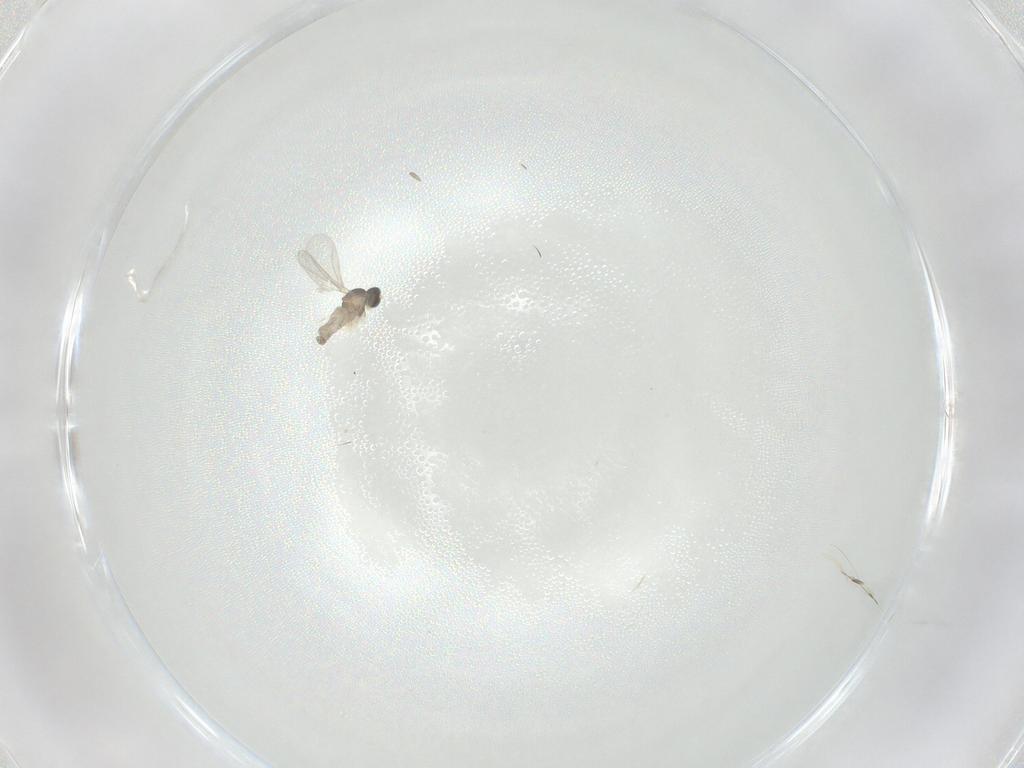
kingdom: Animalia
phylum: Arthropoda
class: Insecta
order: Diptera
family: Cecidomyiidae
